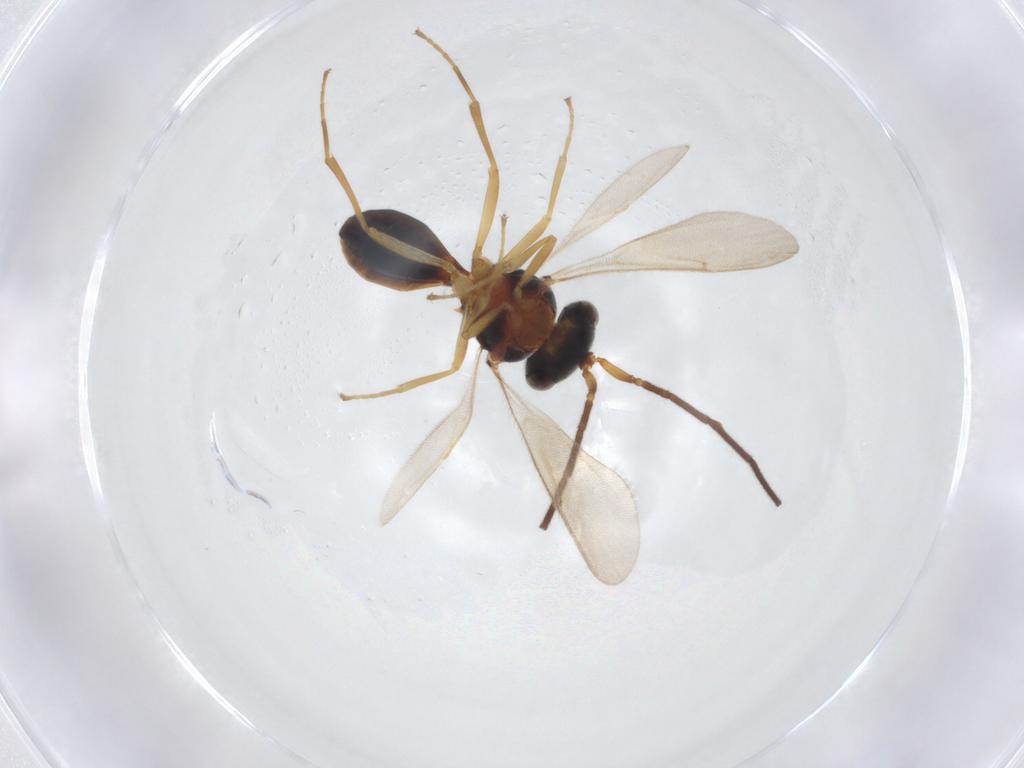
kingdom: Animalia
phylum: Arthropoda
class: Insecta
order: Hymenoptera
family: Scelionidae
